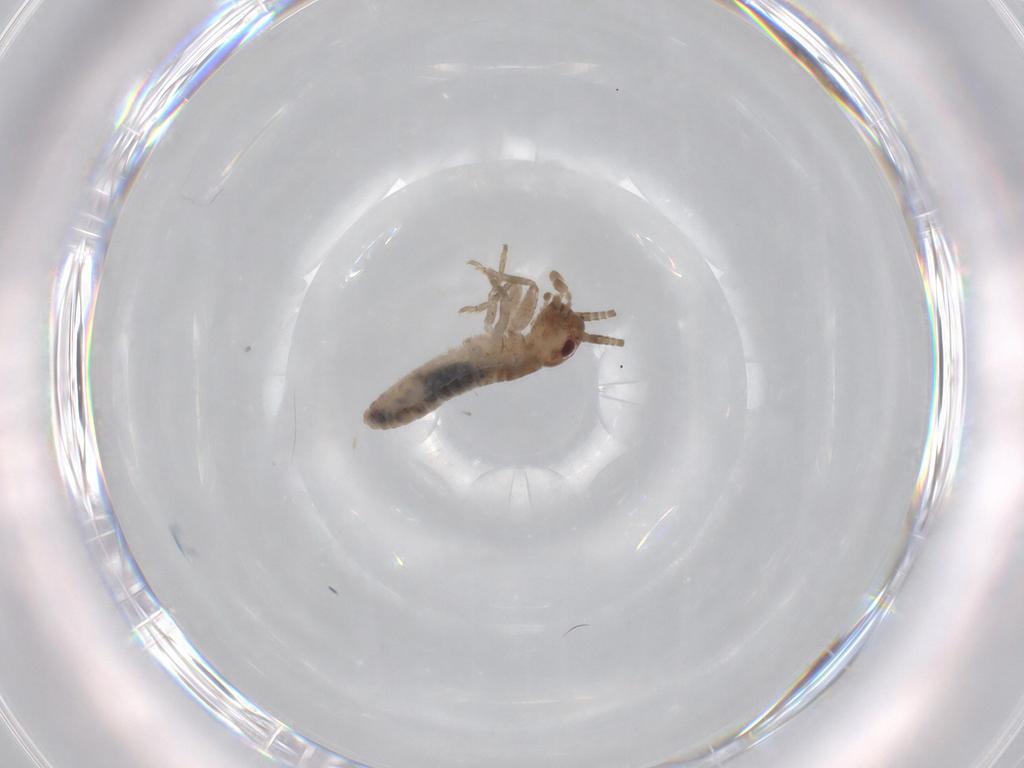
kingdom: Animalia
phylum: Arthropoda
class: Insecta
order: Orthoptera
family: Mogoplistidae
